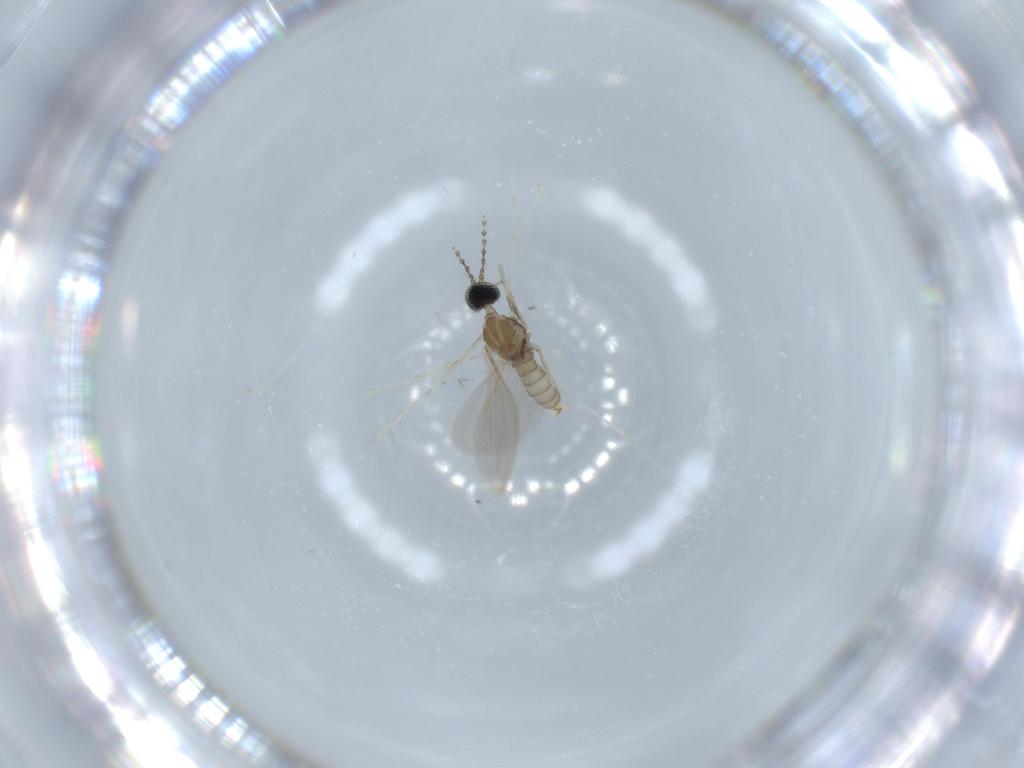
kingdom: Animalia
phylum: Arthropoda
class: Insecta
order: Diptera
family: Cecidomyiidae
